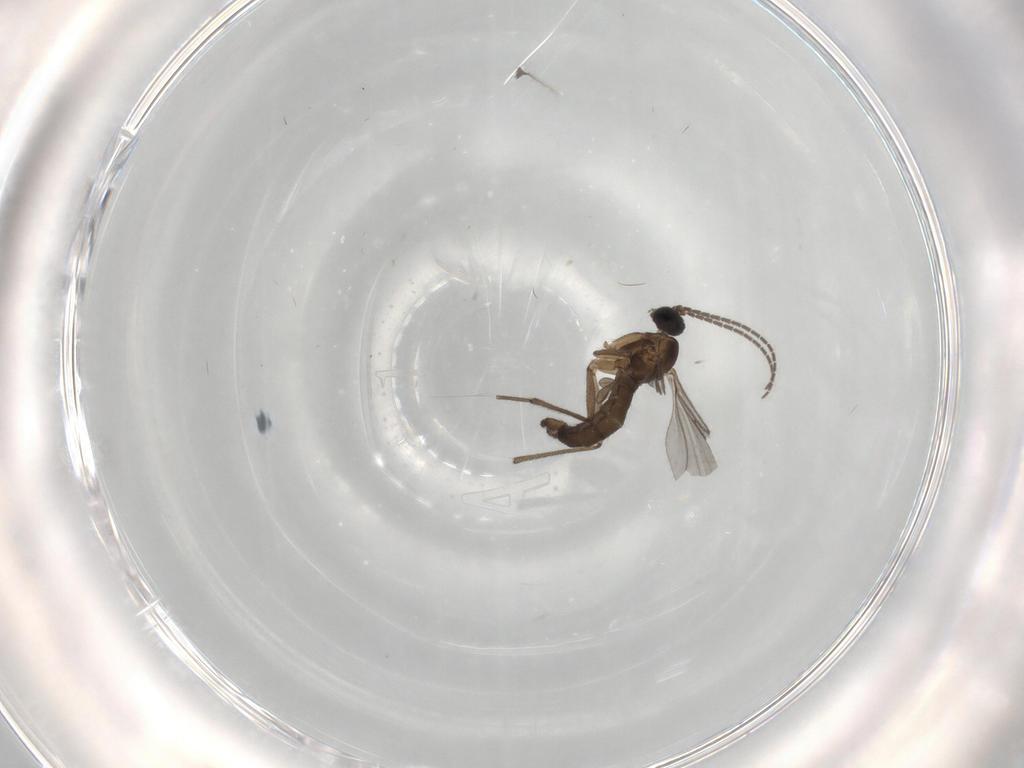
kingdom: Animalia
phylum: Arthropoda
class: Insecta
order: Diptera
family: Sciaridae
